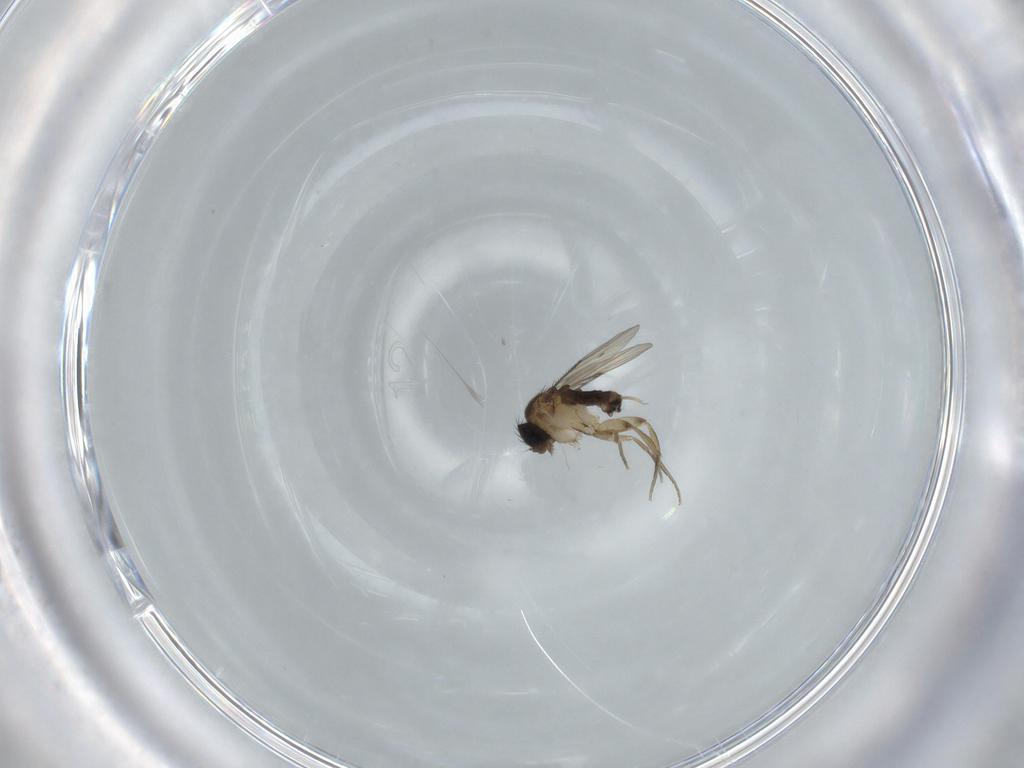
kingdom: Animalia
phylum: Arthropoda
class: Insecta
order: Diptera
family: Phoridae
